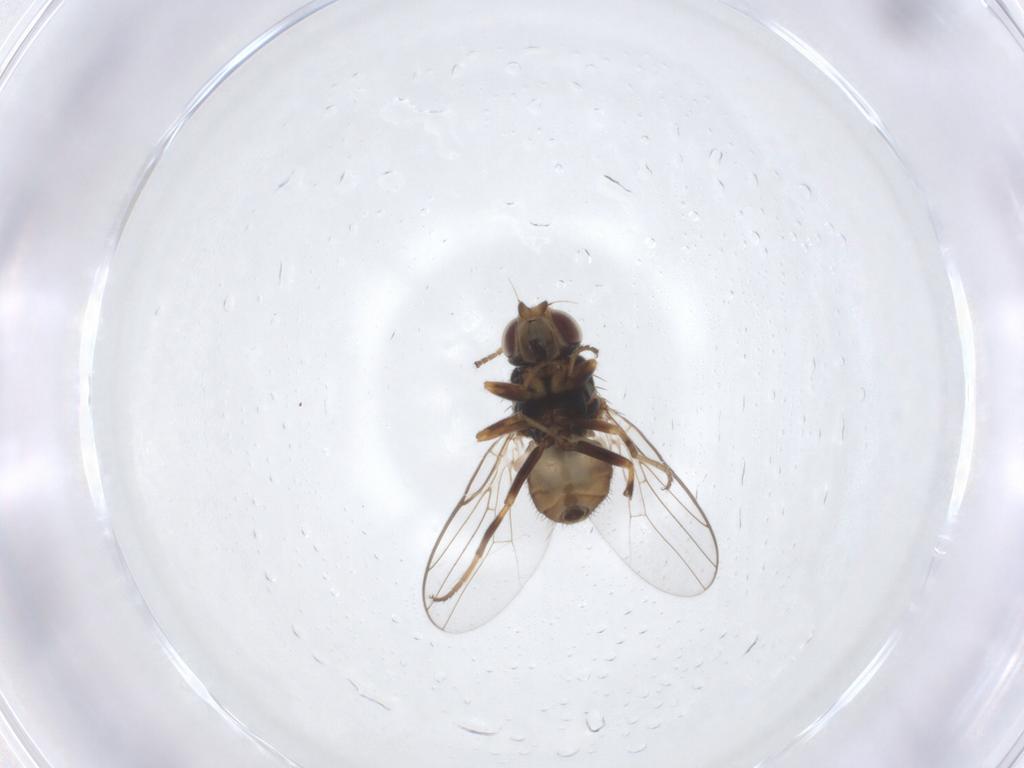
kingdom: Animalia
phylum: Arthropoda
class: Insecta
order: Diptera
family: Chloropidae
